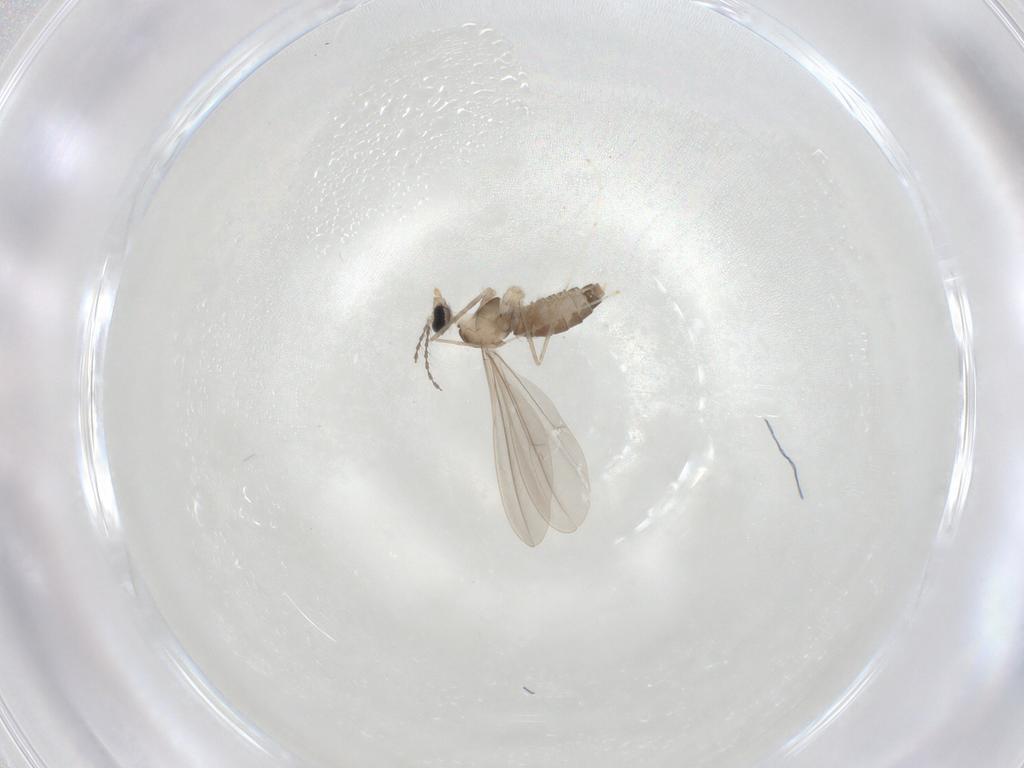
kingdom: Animalia
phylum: Arthropoda
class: Insecta
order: Diptera
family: Cecidomyiidae
